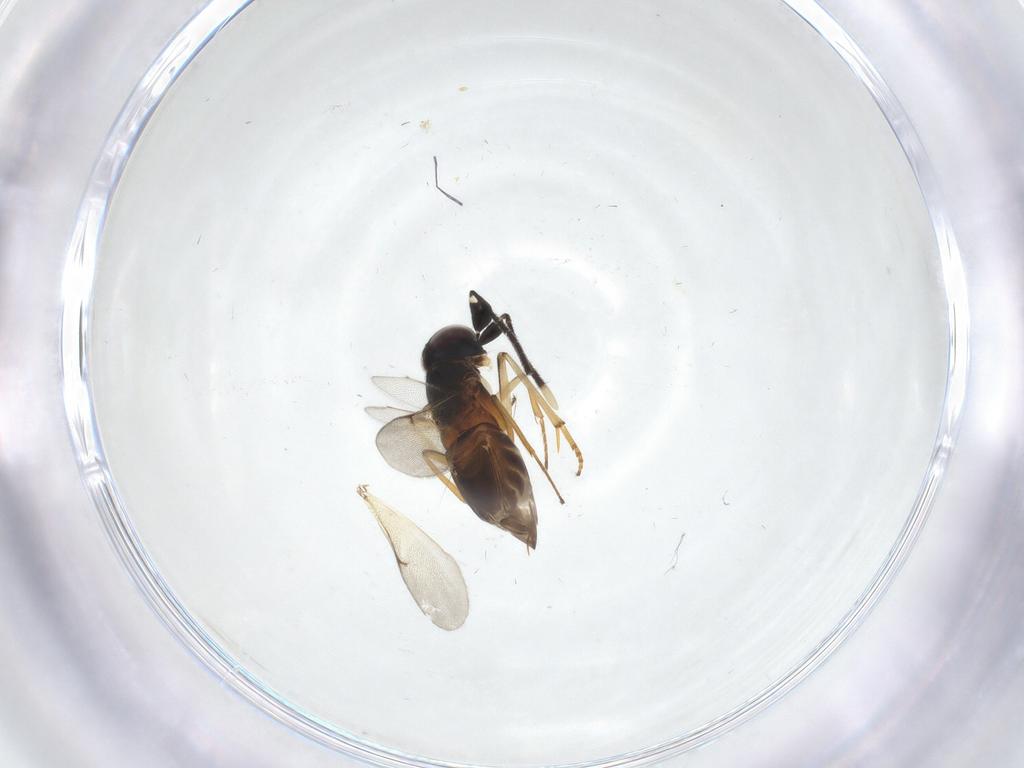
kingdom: Animalia
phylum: Arthropoda
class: Insecta
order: Hymenoptera
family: Encyrtidae
